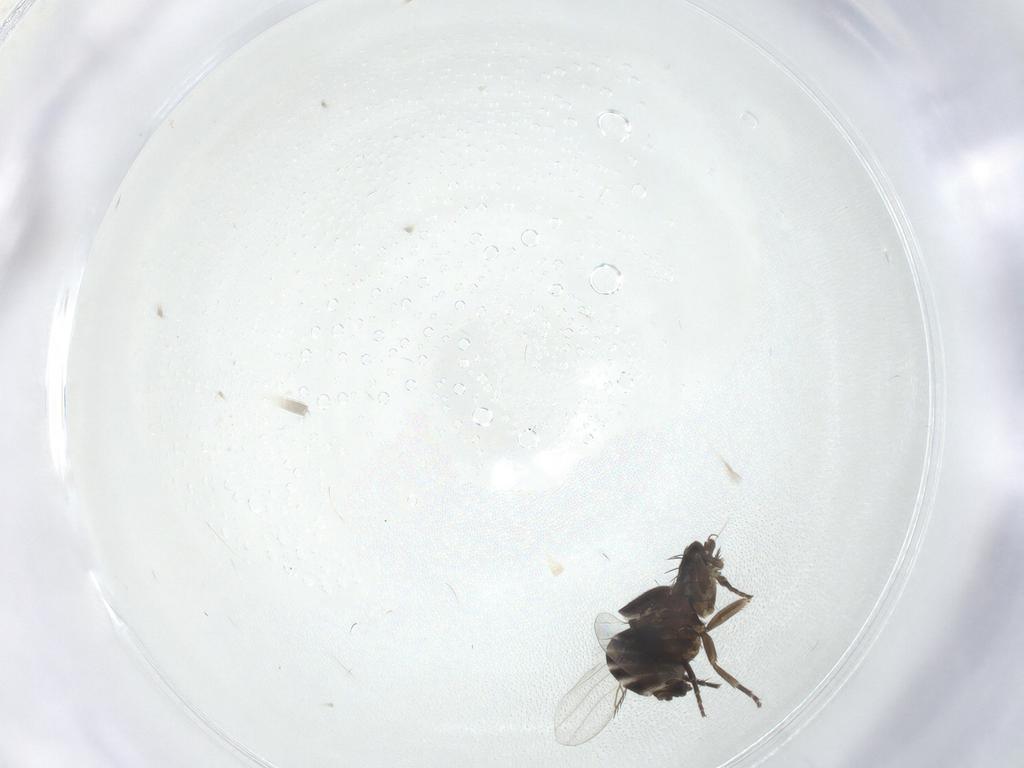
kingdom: Animalia
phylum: Arthropoda
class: Insecta
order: Diptera
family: Phoridae
